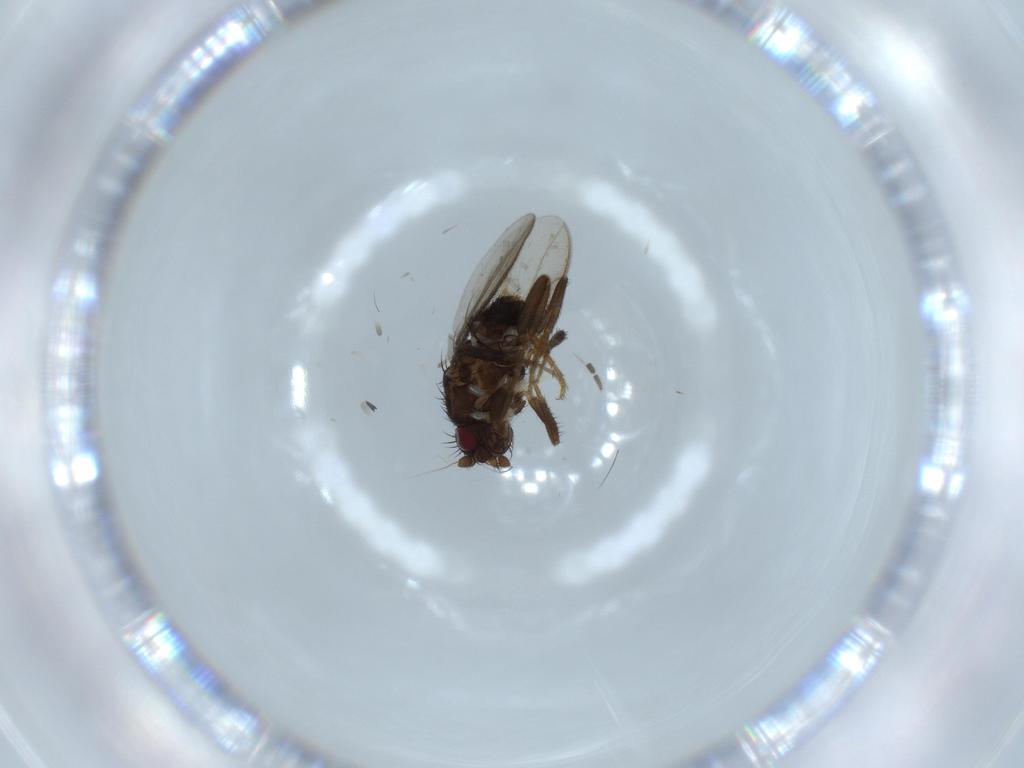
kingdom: Animalia
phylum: Arthropoda
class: Insecta
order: Diptera
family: Sciaridae
